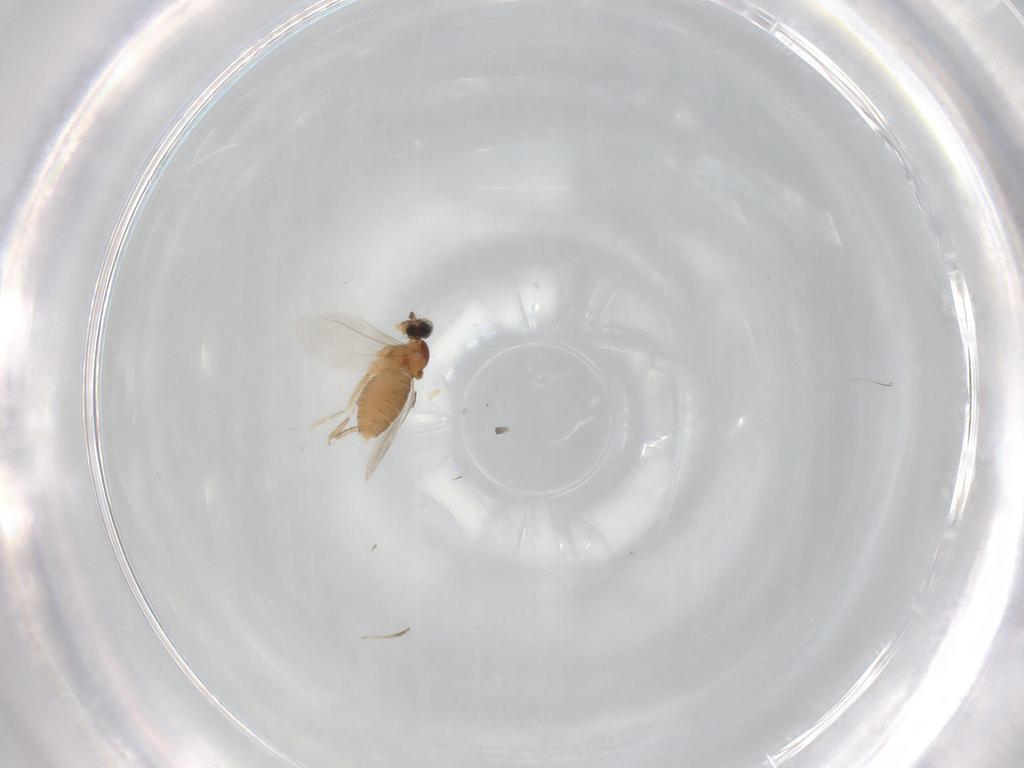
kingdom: Animalia
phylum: Arthropoda
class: Insecta
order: Diptera
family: Cecidomyiidae
